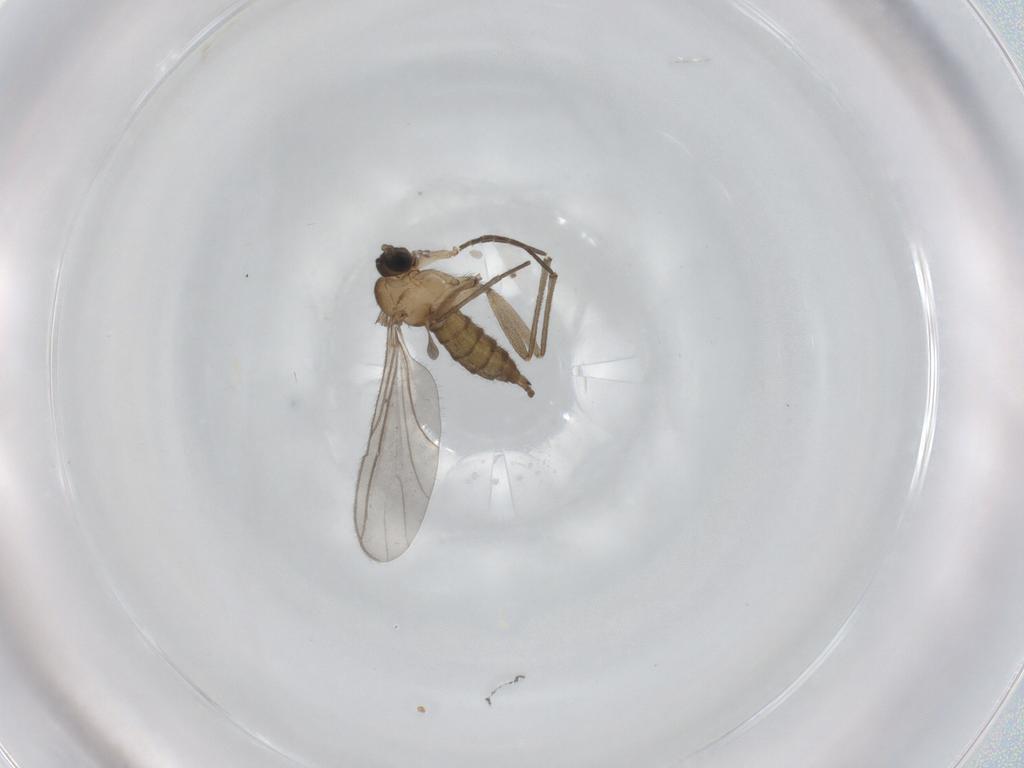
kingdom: Animalia
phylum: Arthropoda
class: Insecta
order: Diptera
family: Sciaridae
